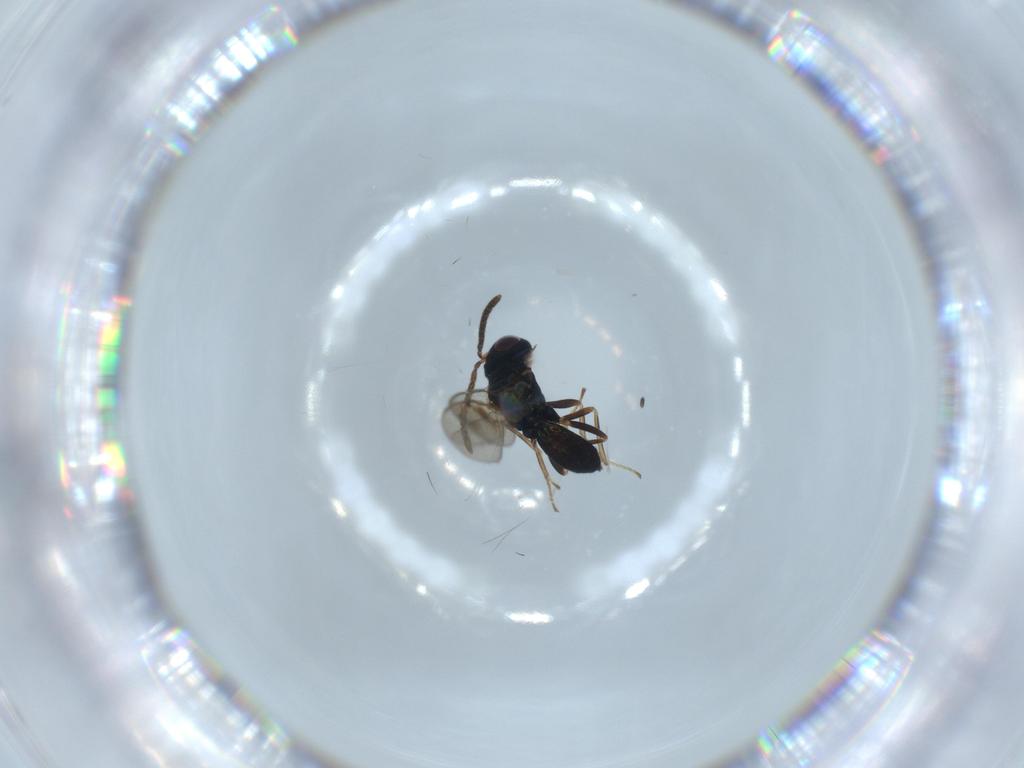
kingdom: Animalia
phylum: Arthropoda
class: Insecta
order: Hymenoptera
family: Pteromalidae
